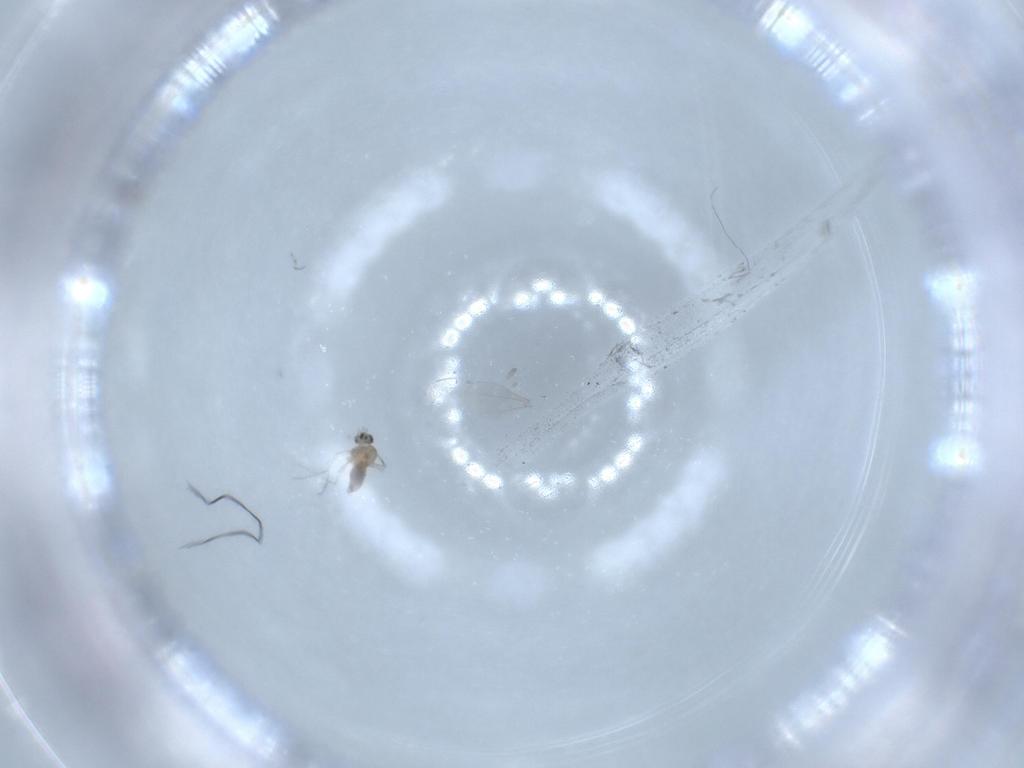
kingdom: Animalia
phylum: Arthropoda
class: Insecta
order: Diptera
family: Cecidomyiidae
